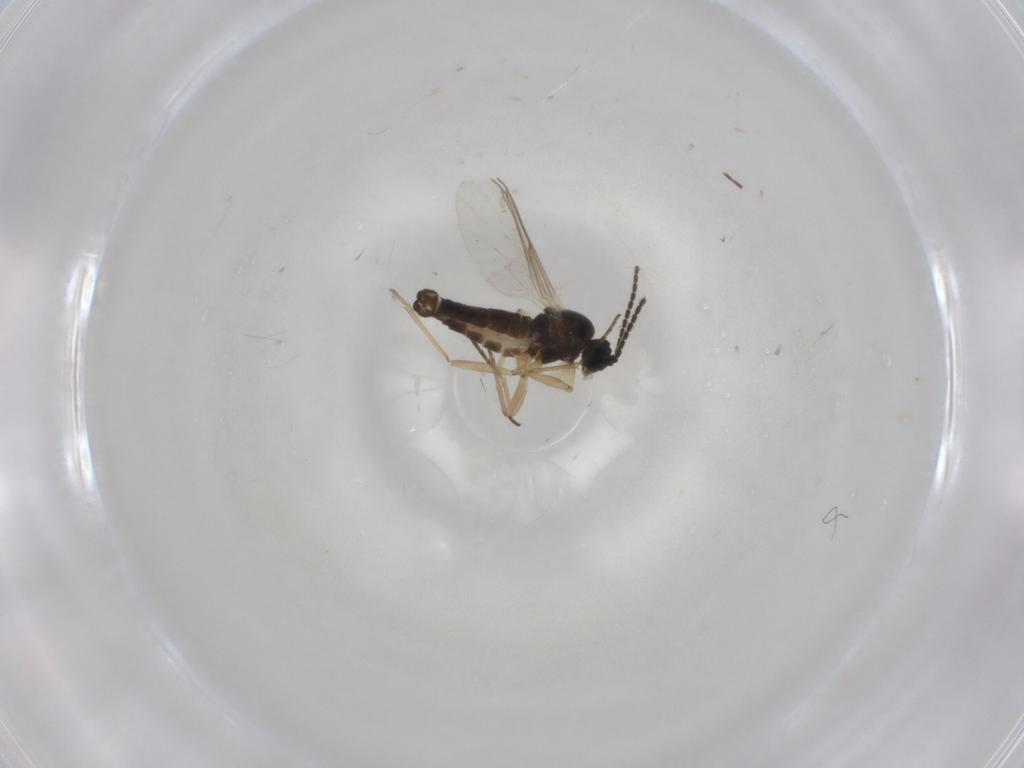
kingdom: Animalia
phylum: Arthropoda
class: Insecta
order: Diptera
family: Sciaridae
